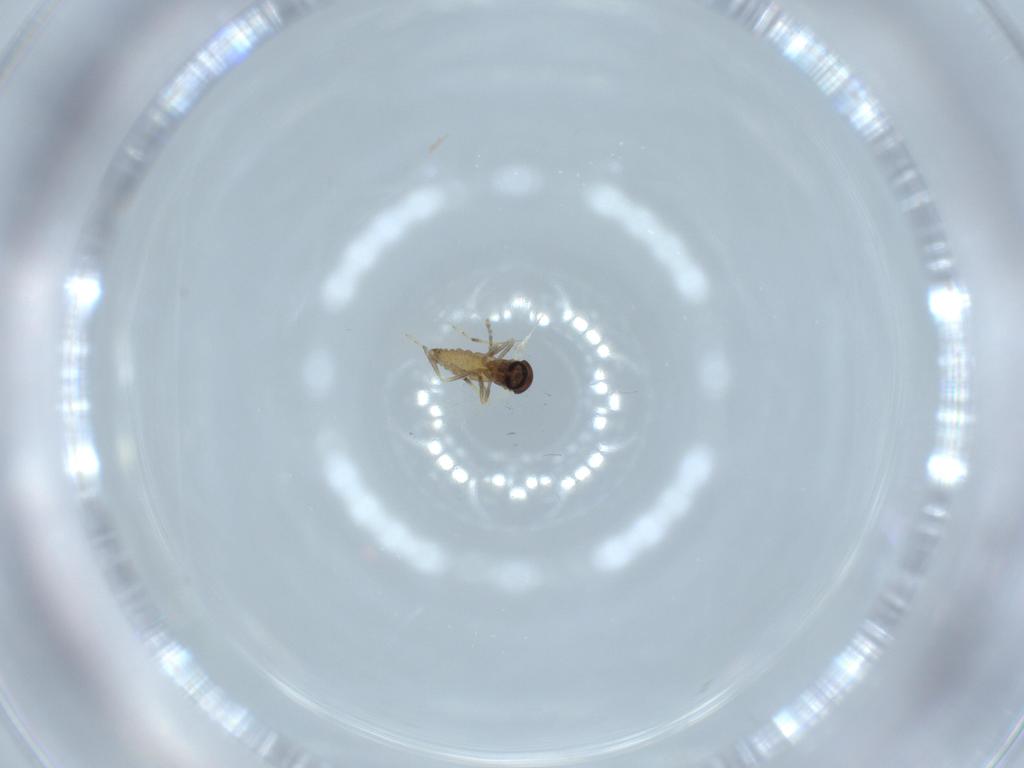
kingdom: Animalia
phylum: Arthropoda
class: Insecta
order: Diptera
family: Ceratopogonidae
